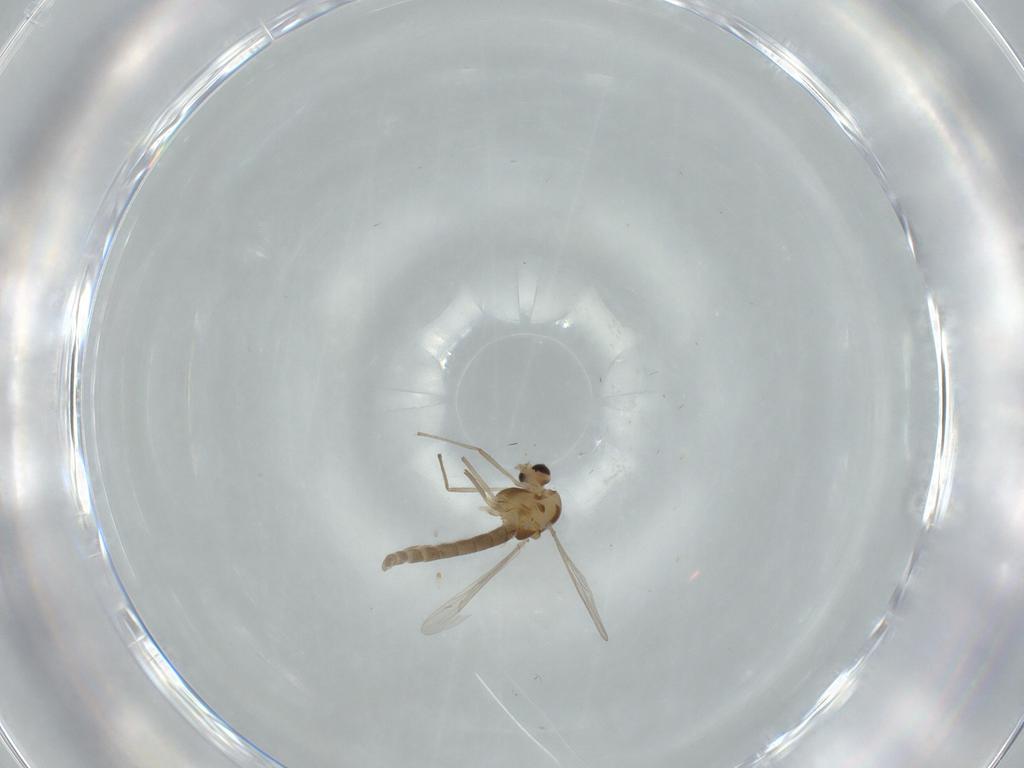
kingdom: Animalia
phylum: Arthropoda
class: Insecta
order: Diptera
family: Chironomidae
